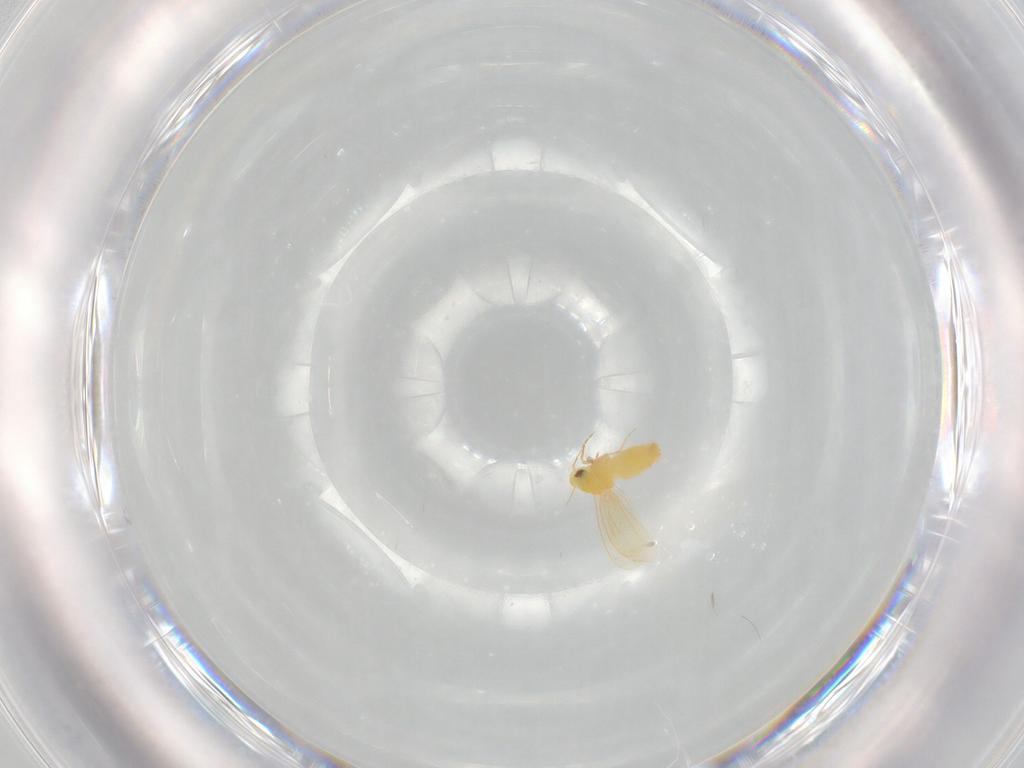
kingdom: Animalia
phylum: Arthropoda
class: Insecta
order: Hemiptera
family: Aleyrodidae
